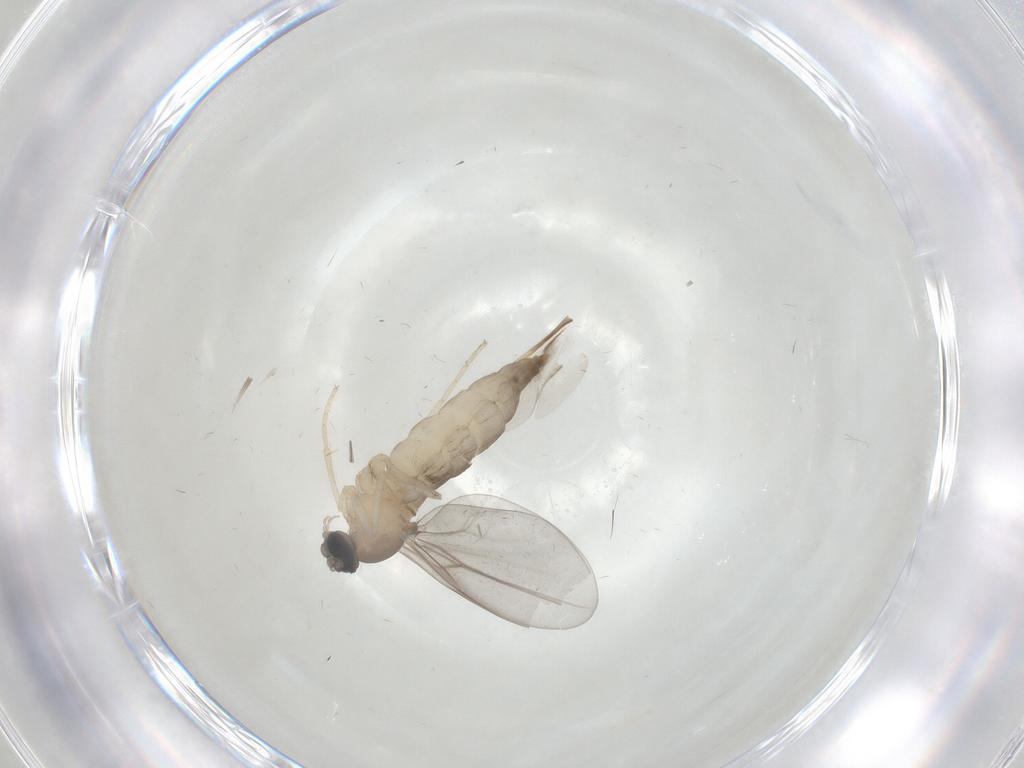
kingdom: Animalia
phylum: Arthropoda
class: Insecta
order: Diptera
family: Cecidomyiidae
